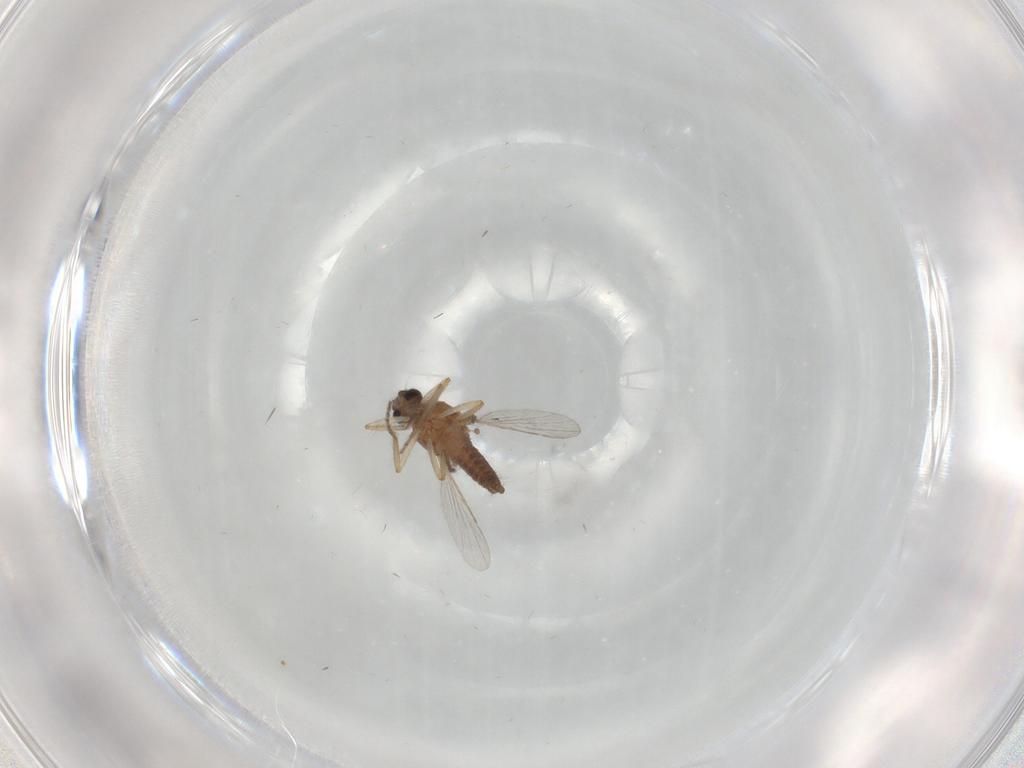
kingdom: Animalia
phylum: Arthropoda
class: Insecta
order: Diptera
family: Ceratopogonidae
